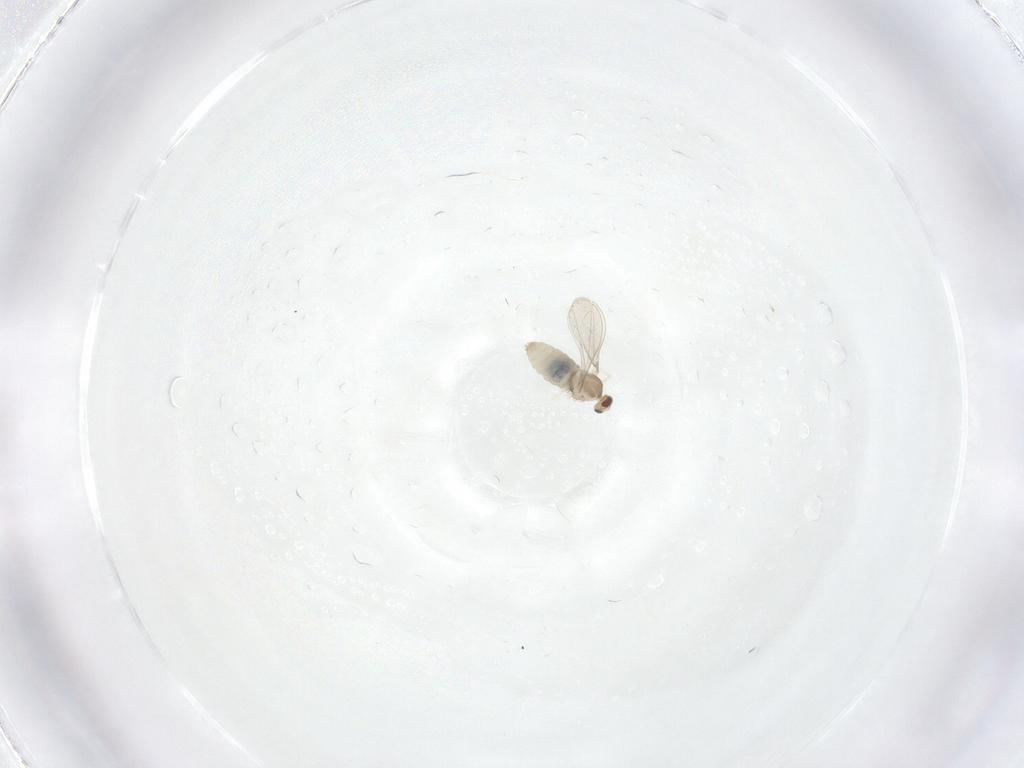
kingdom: Animalia
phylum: Arthropoda
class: Insecta
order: Diptera
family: Cecidomyiidae
